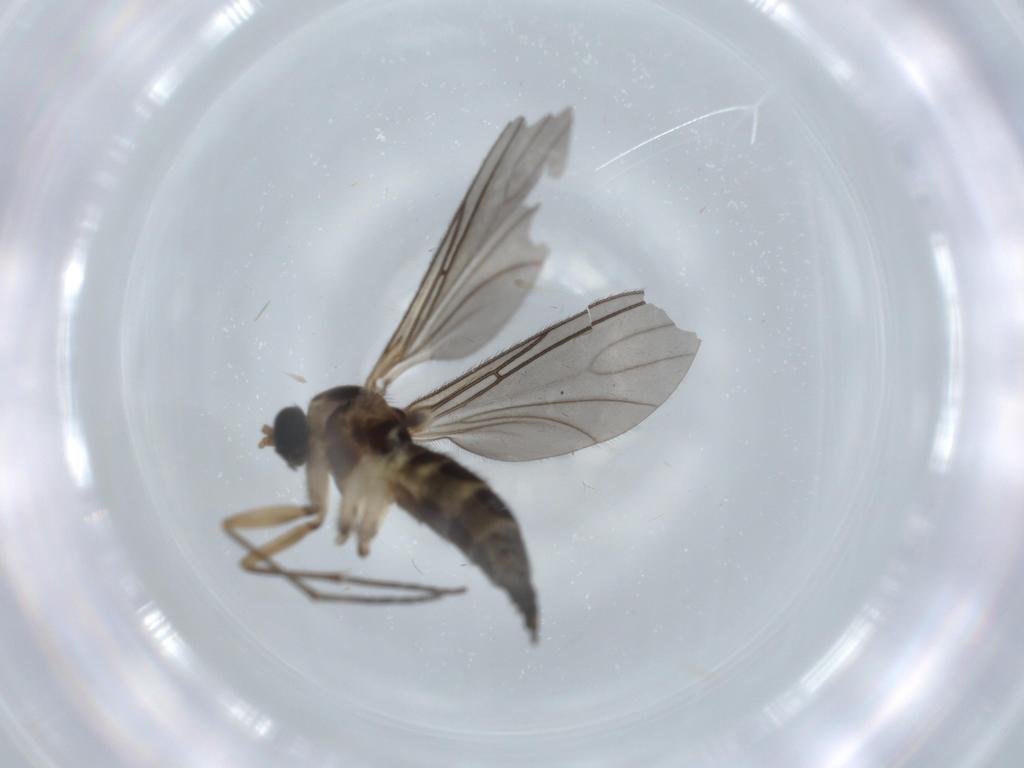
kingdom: Animalia
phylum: Arthropoda
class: Insecta
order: Diptera
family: Sciaridae
